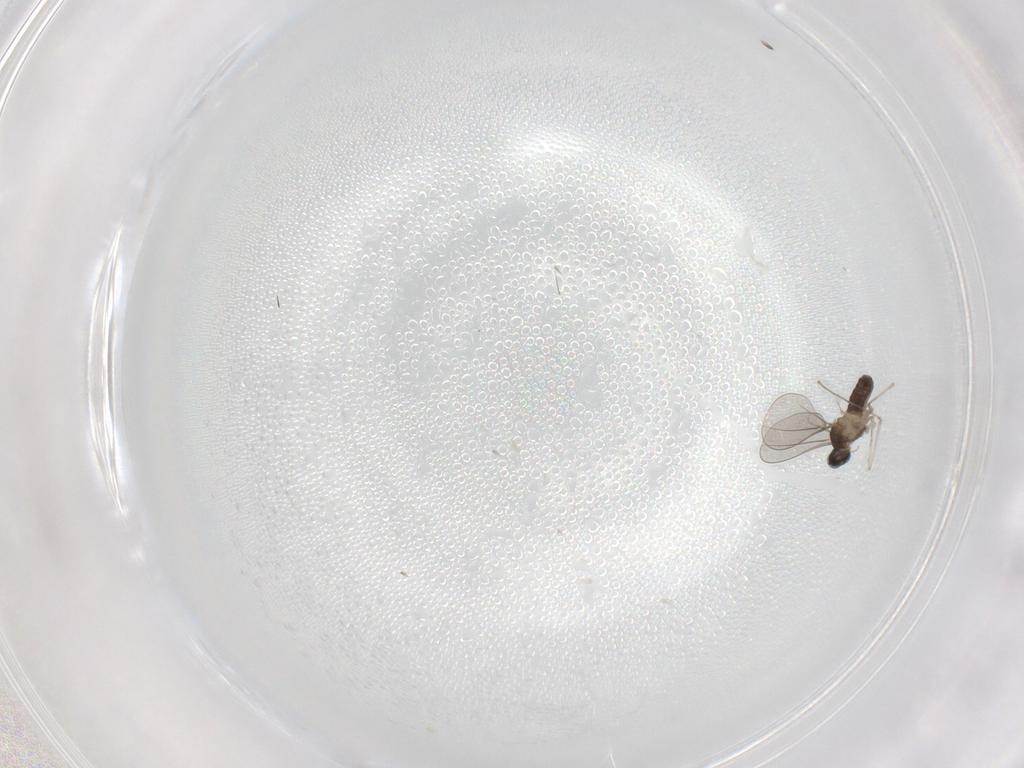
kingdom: Animalia
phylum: Arthropoda
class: Insecta
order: Diptera
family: Cecidomyiidae
